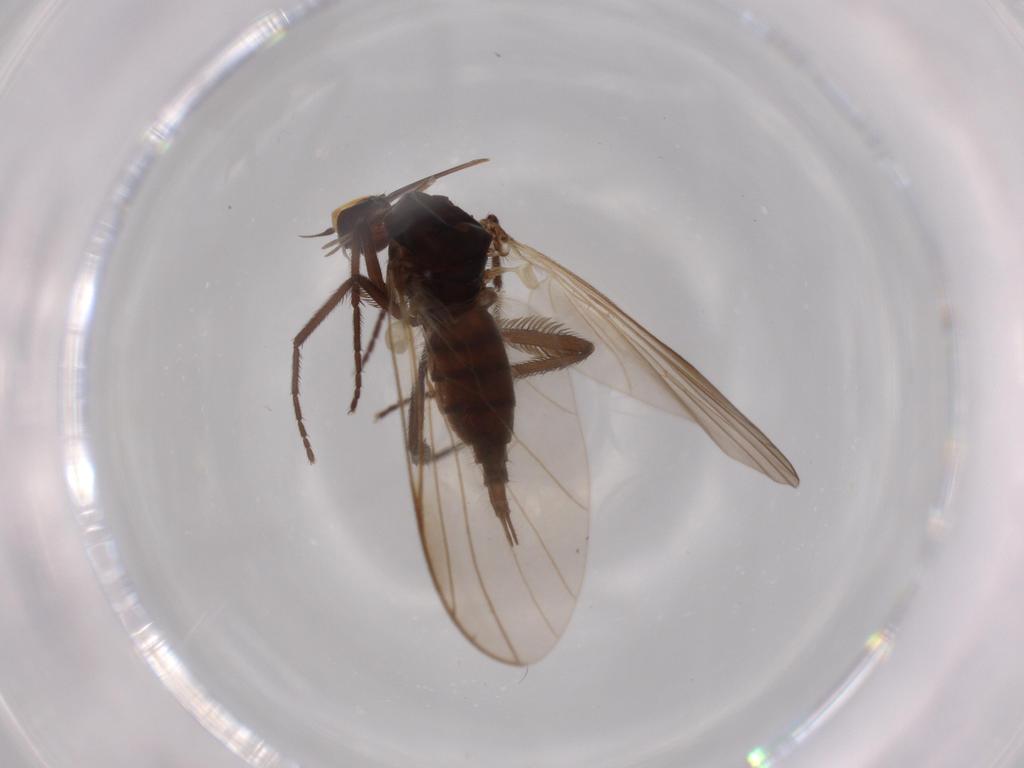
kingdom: Animalia
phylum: Arthropoda
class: Insecta
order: Diptera
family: Empididae
